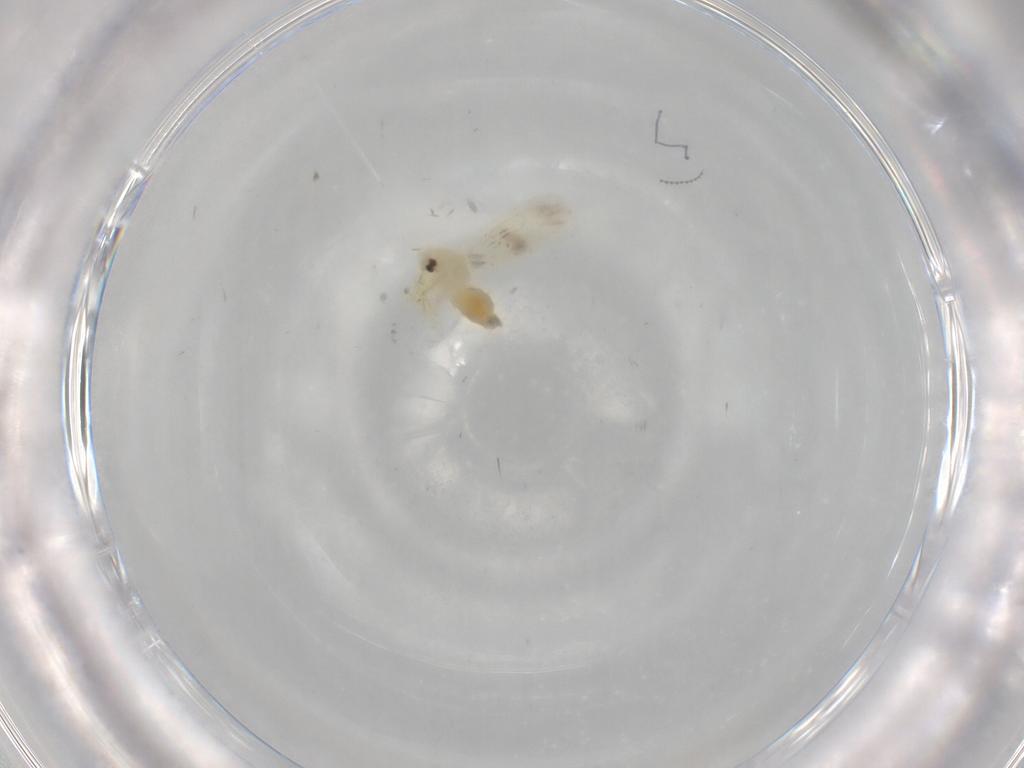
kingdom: Animalia
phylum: Arthropoda
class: Insecta
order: Hemiptera
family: Aleyrodidae
